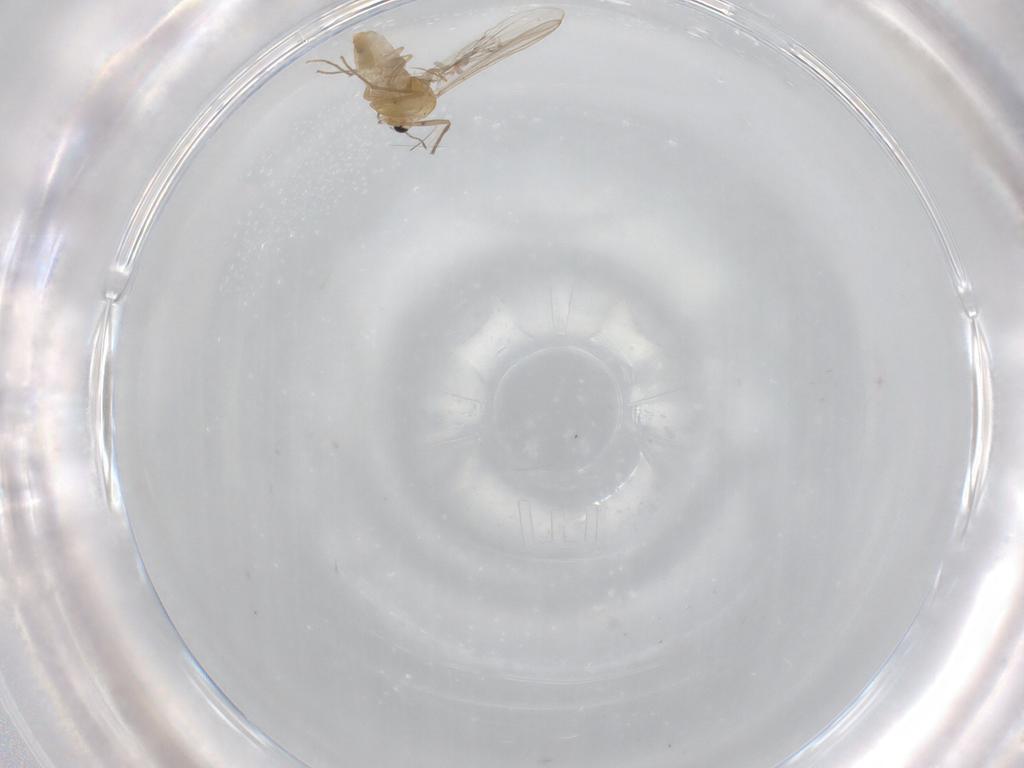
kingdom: Animalia
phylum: Arthropoda
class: Insecta
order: Diptera
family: Chironomidae
